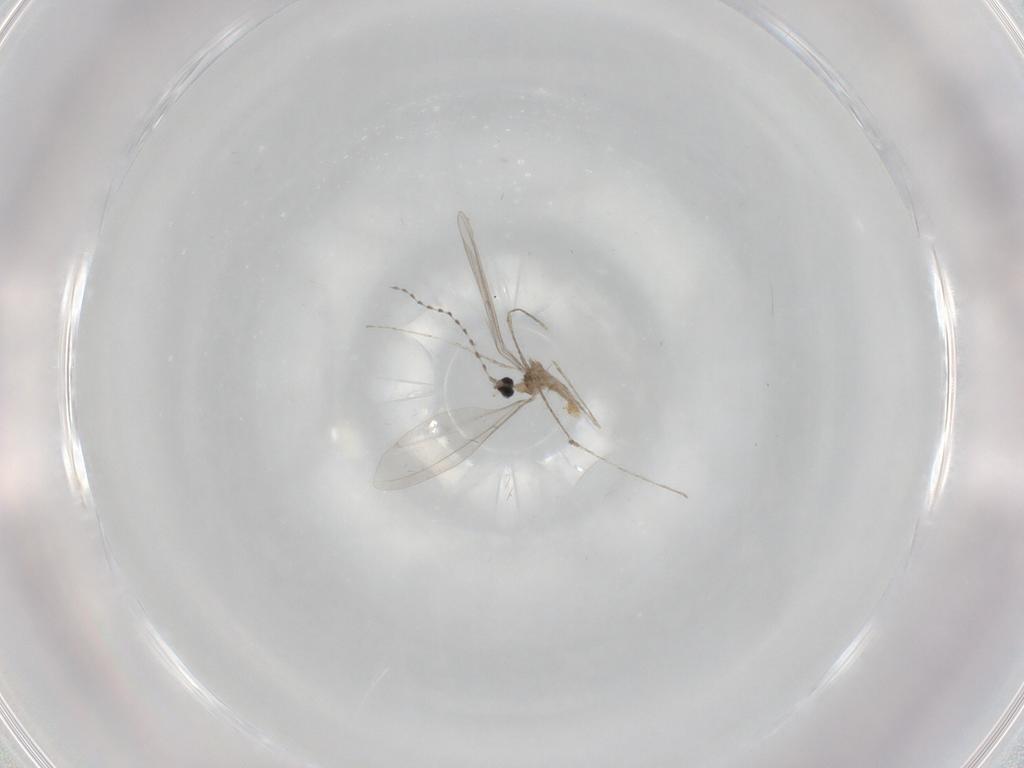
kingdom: Animalia
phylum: Arthropoda
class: Insecta
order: Diptera
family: Cecidomyiidae
